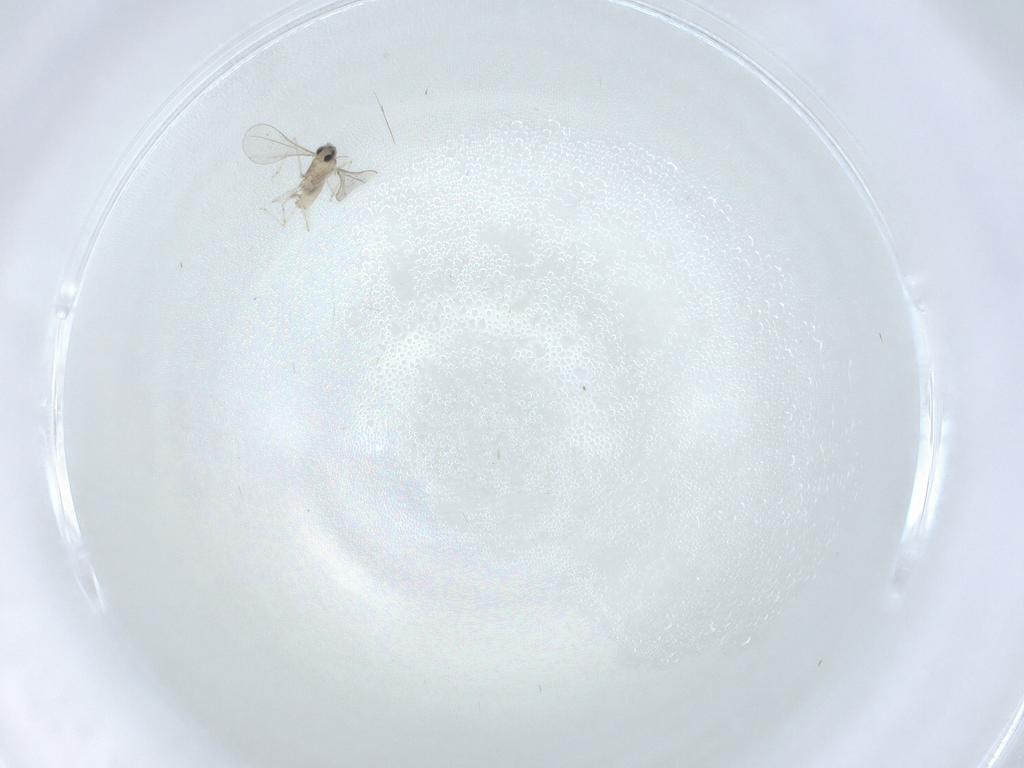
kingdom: Animalia
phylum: Arthropoda
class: Insecta
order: Diptera
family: Cecidomyiidae
